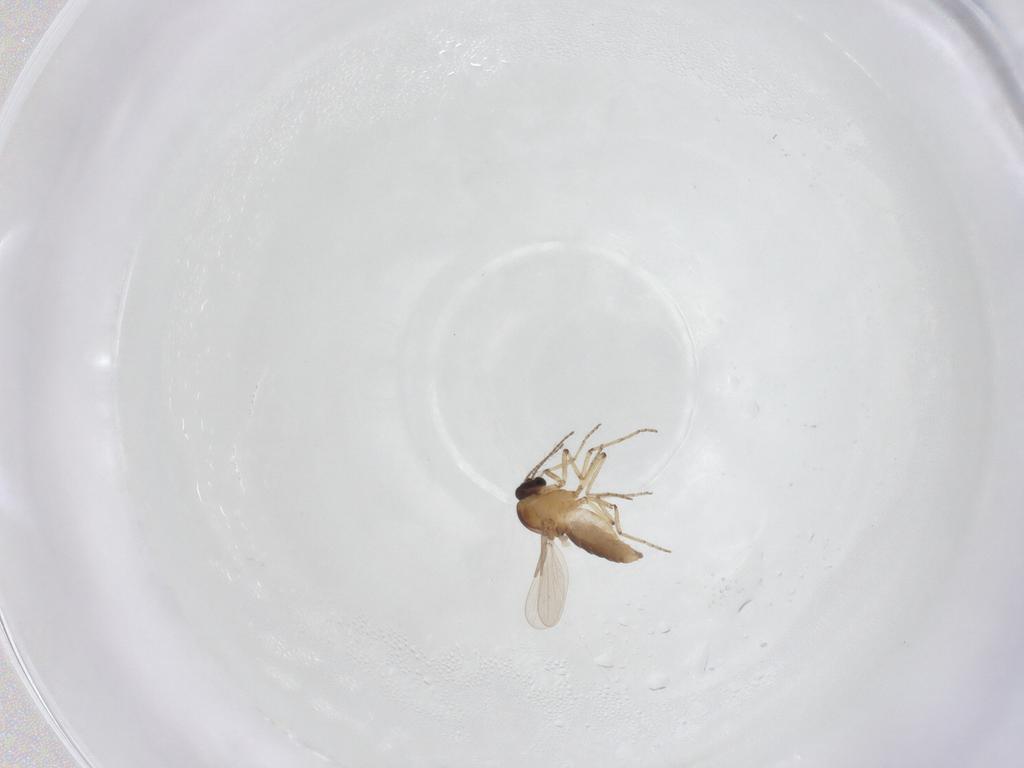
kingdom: Animalia
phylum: Arthropoda
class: Insecta
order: Diptera
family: Cecidomyiidae
